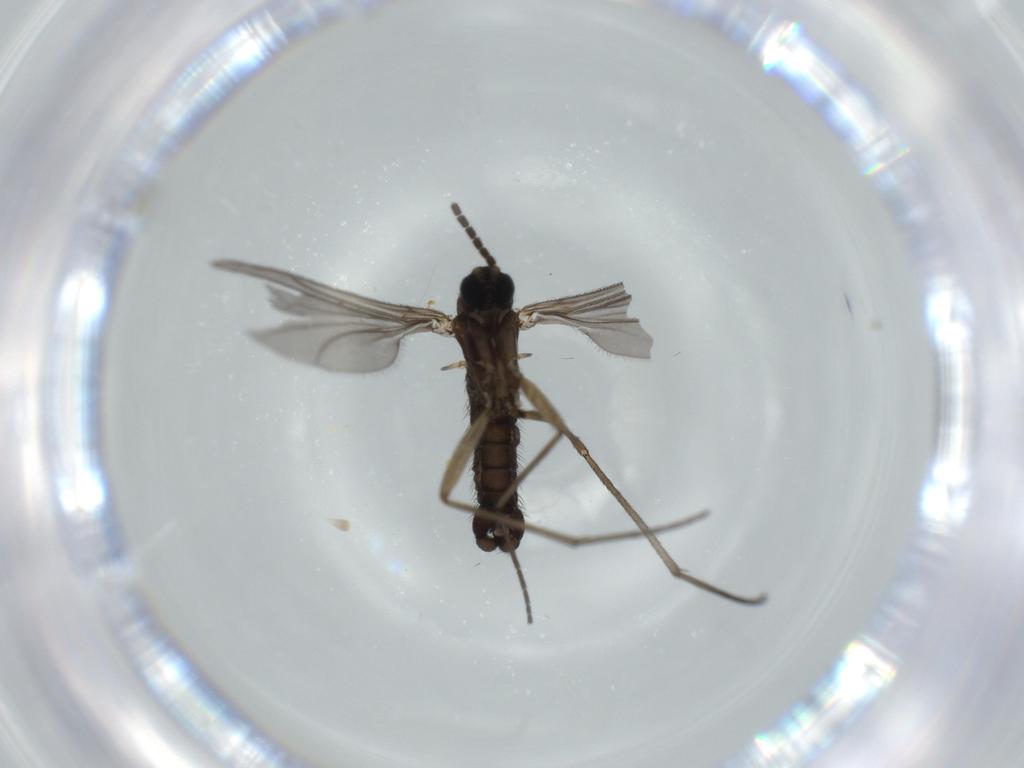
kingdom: Animalia
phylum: Arthropoda
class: Insecta
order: Diptera
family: Sciaridae
